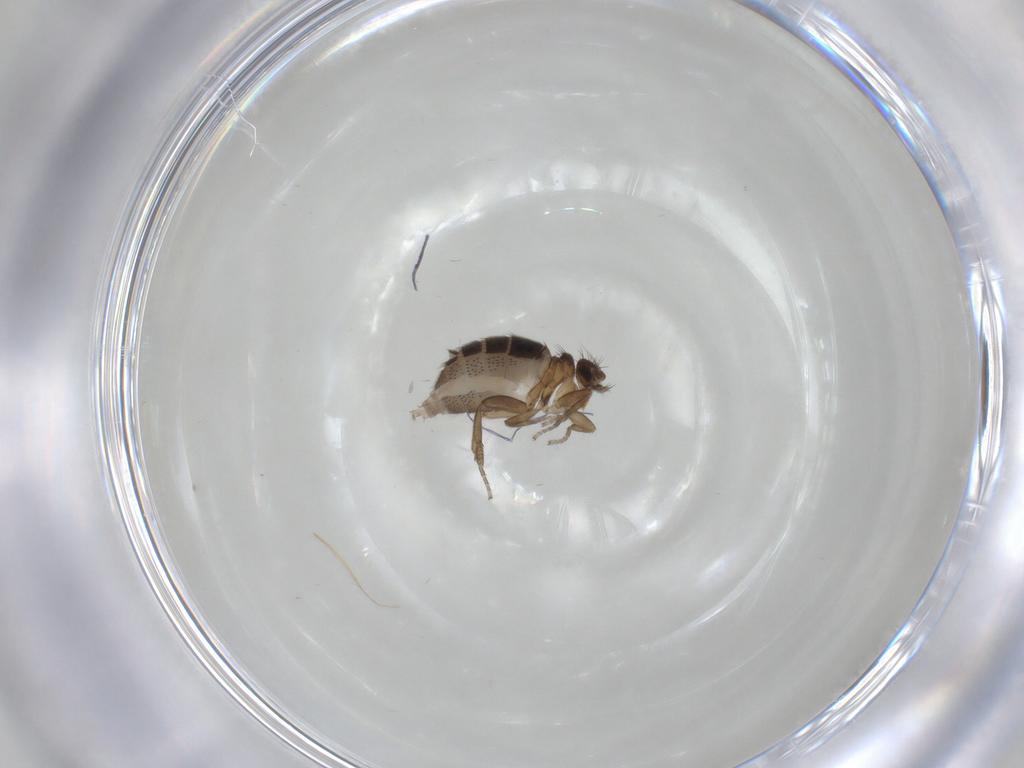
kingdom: Animalia
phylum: Arthropoda
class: Insecta
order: Diptera
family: Phoridae
